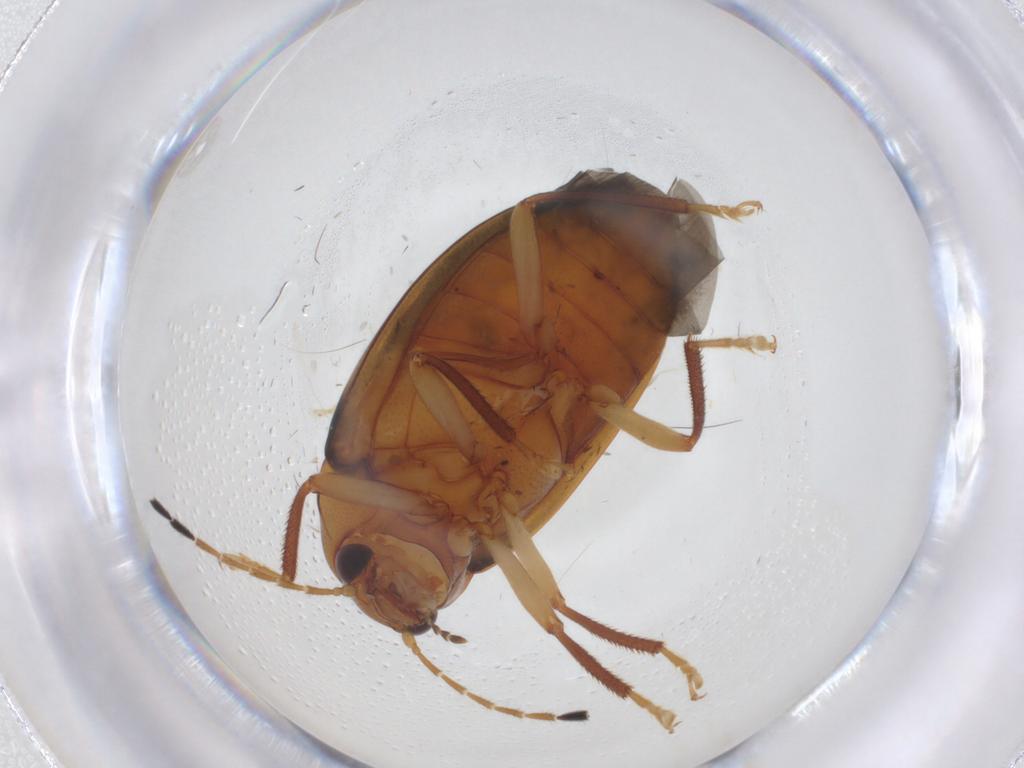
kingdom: Animalia
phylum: Arthropoda
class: Insecta
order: Coleoptera
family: Ptilodactylidae
